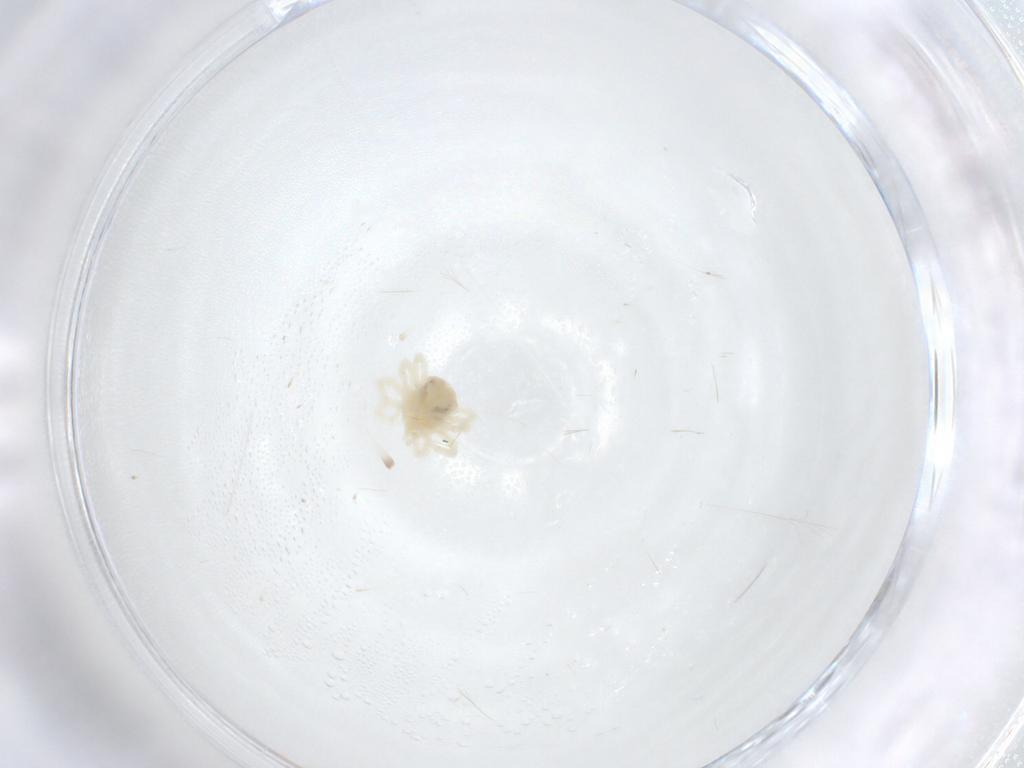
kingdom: Animalia
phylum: Arthropoda
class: Arachnida
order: Trombidiformes
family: Anystidae
